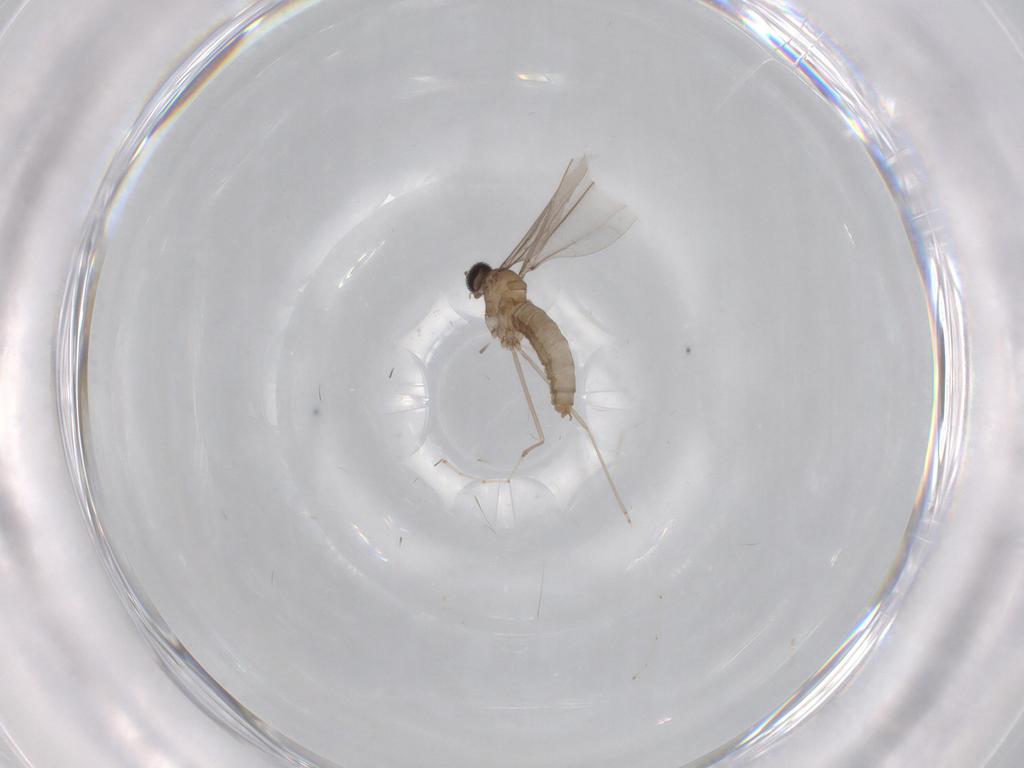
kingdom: Animalia
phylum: Arthropoda
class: Insecta
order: Diptera
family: Cecidomyiidae
